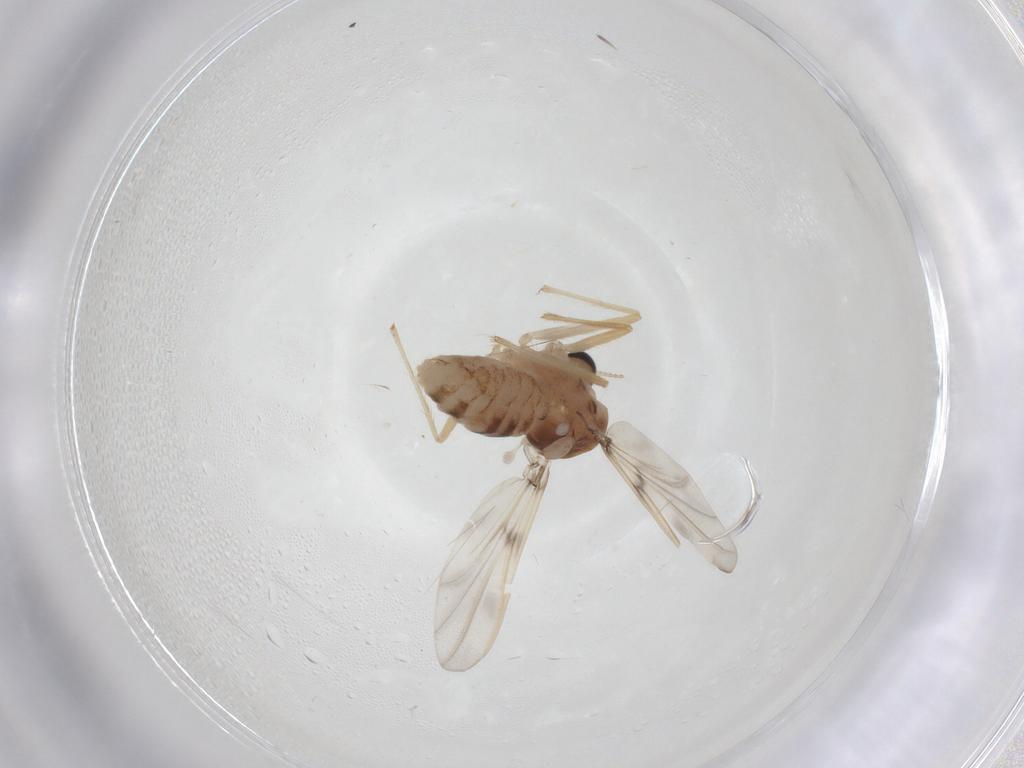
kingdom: Animalia
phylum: Arthropoda
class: Insecta
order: Diptera
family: Chironomidae
